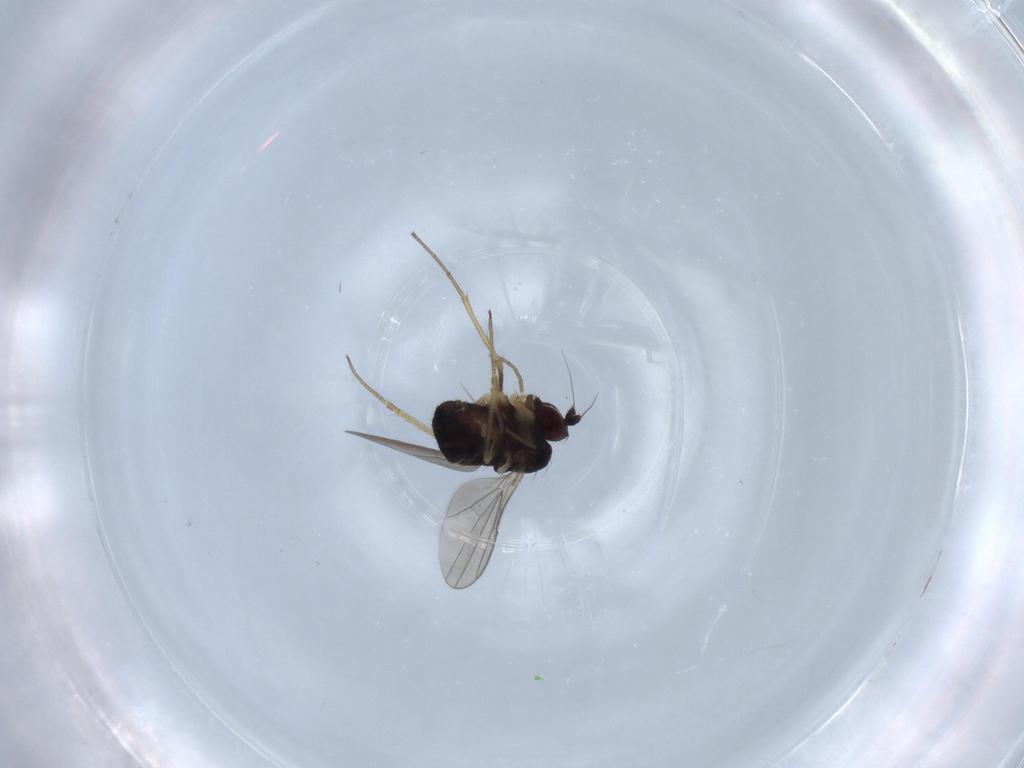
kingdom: Animalia
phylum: Arthropoda
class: Insecta
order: Diptera
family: Dolichopodidae
